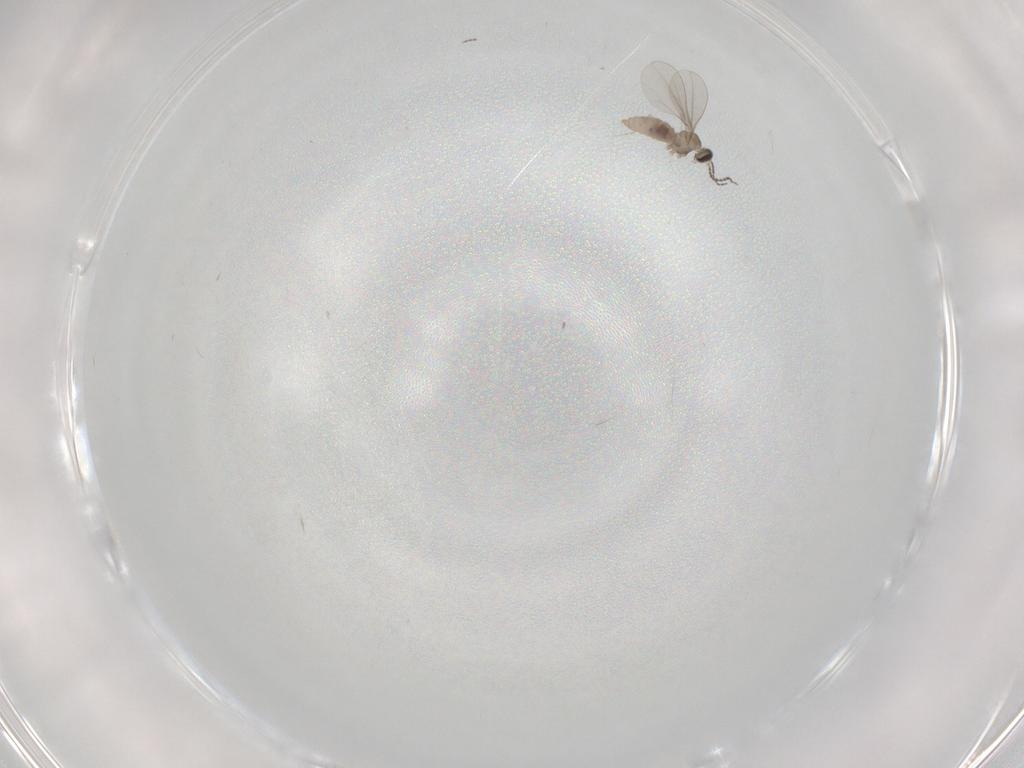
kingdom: Animalia
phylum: Arthropoda
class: Insecta
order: Diptera
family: Cecidomyiidae
